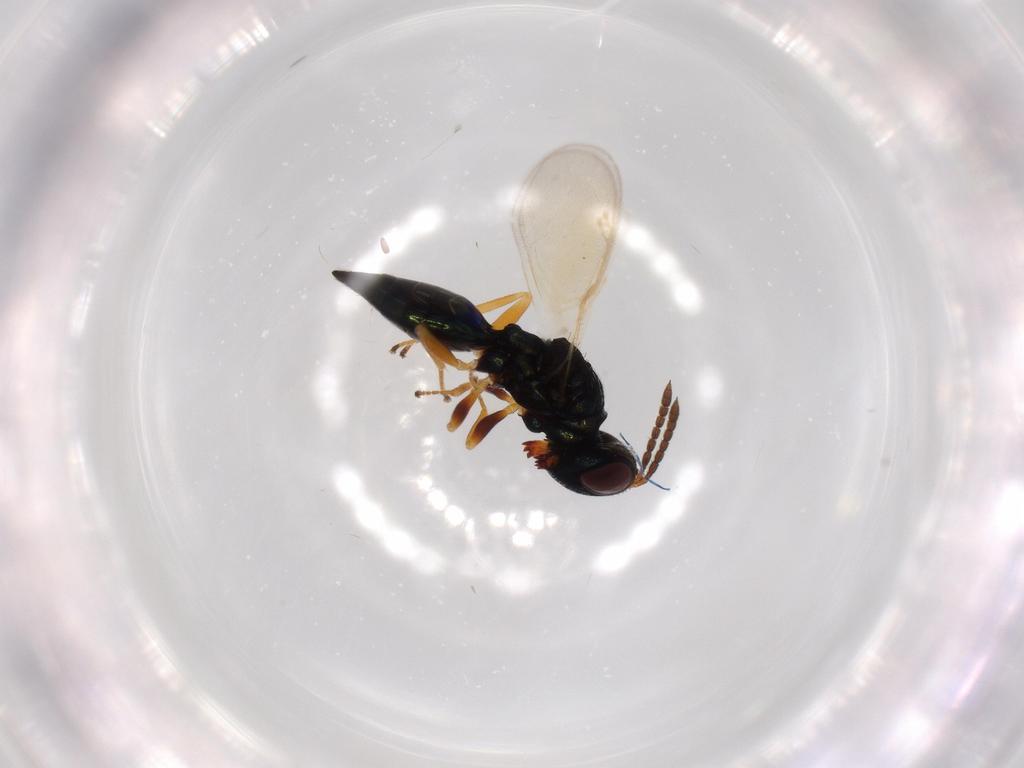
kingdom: Animalia
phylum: Arthropoda
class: Insecta
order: Hymenoptera
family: Pteromalidae
